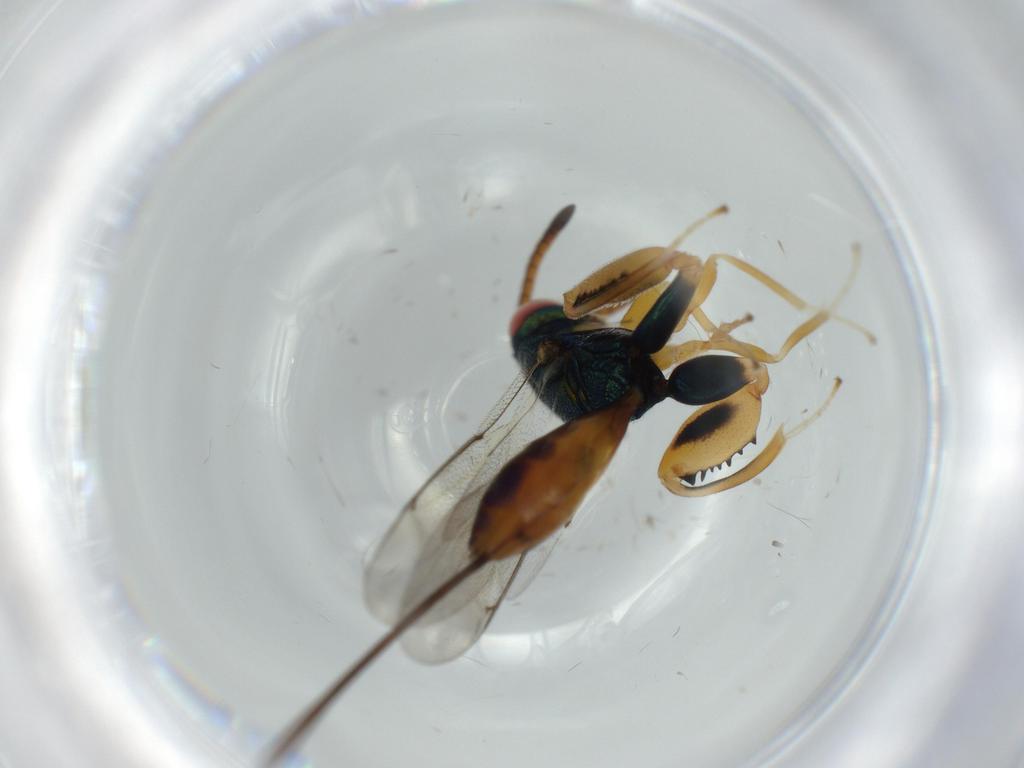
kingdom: Animalia
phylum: Arthropoda
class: Insecta
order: Hymenoptera
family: Torymidae
